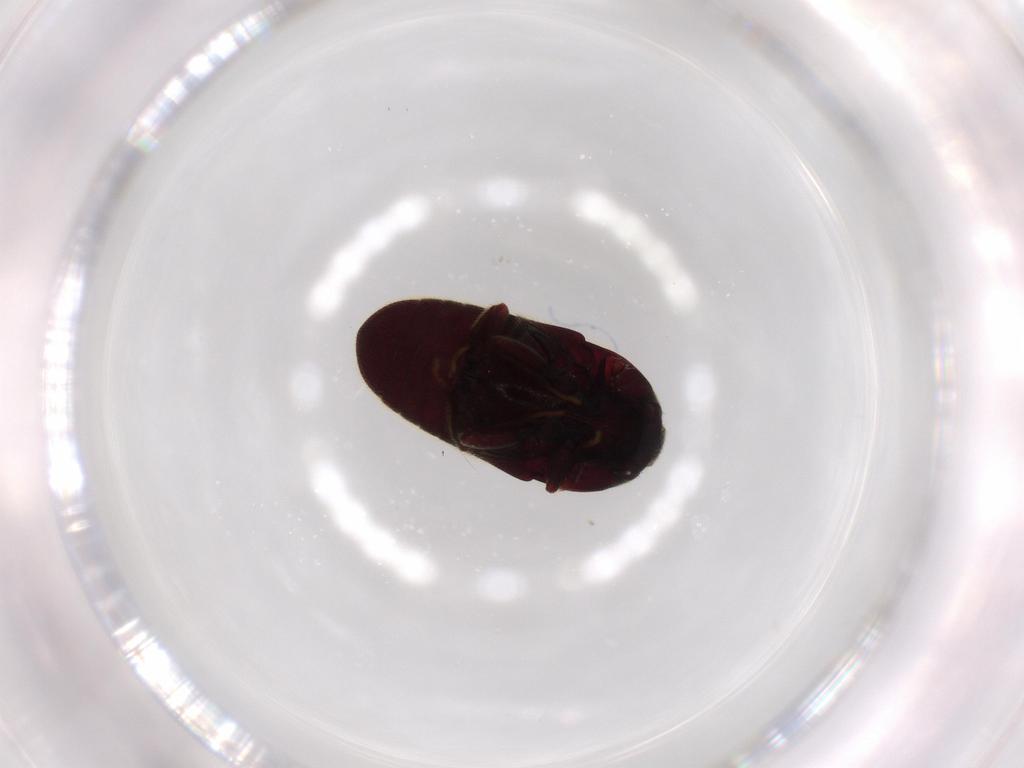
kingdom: Animalia
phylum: Arthropoda
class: Insecta
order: Coleoptera
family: Throscidae
